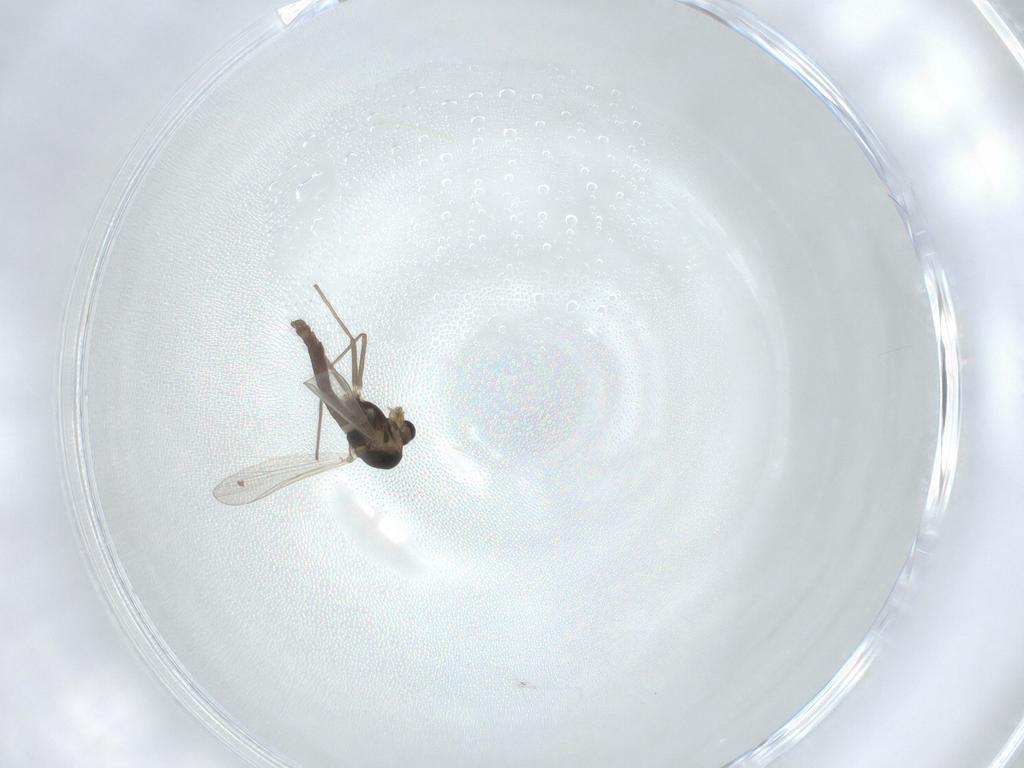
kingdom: Animalia
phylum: Arthropoda
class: Insecta
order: Diptera
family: Chironomidae
